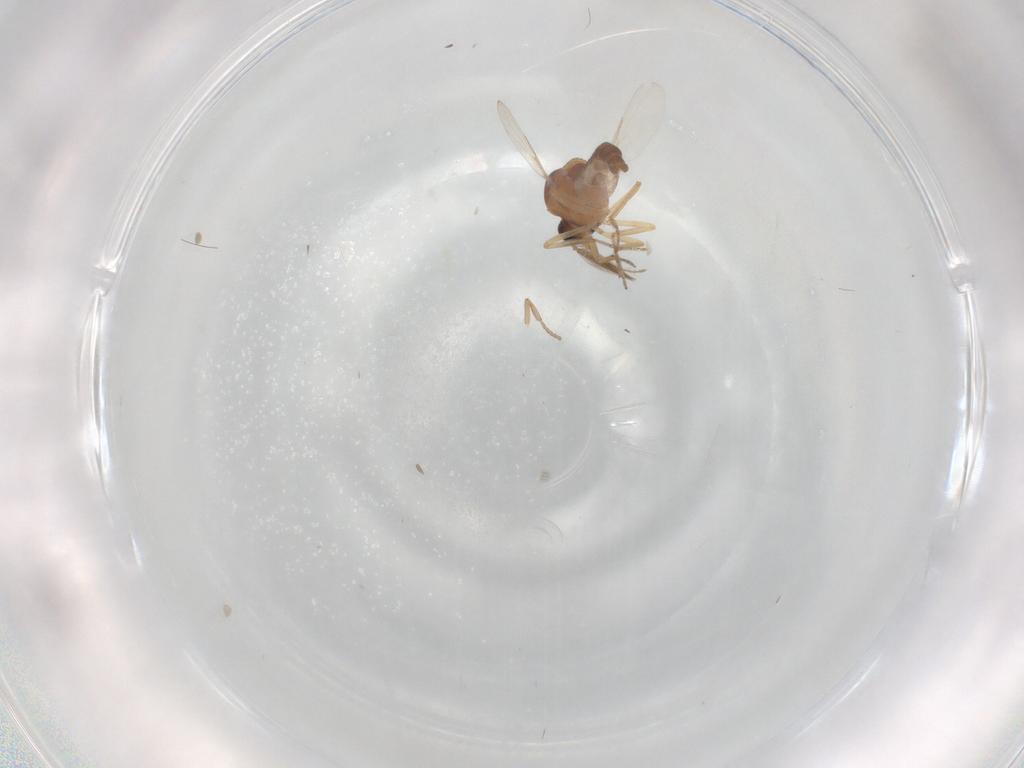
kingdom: Animalia
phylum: Arthropoda
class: Insecta
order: Diptera
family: Ceratopogonidae
